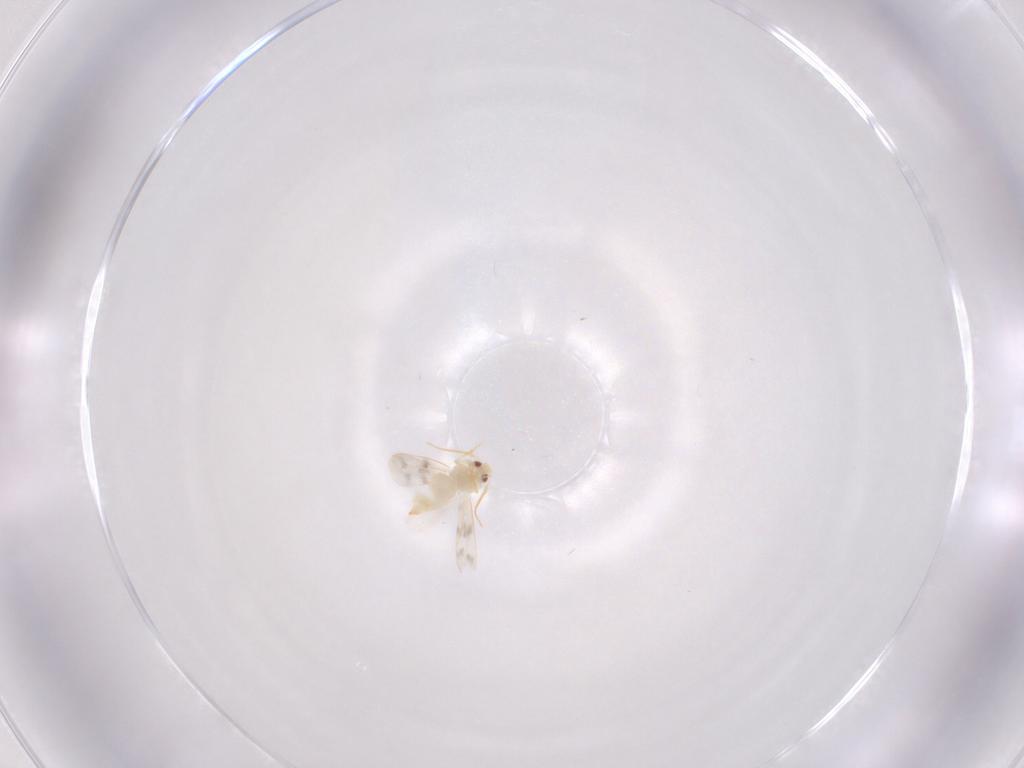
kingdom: Animalia
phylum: Arthropoda
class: Insecta
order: Hemiptera
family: Aleyrodidae
